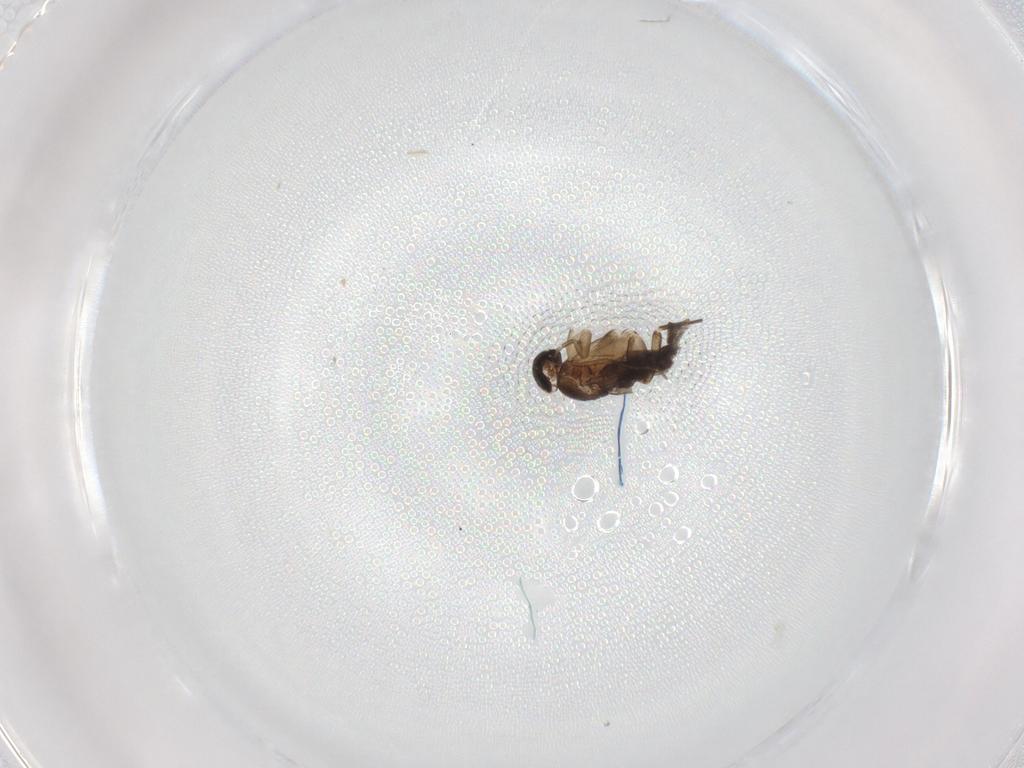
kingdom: Animalia
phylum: Arthropoda
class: Insecta
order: Diptera
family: Phoridae
